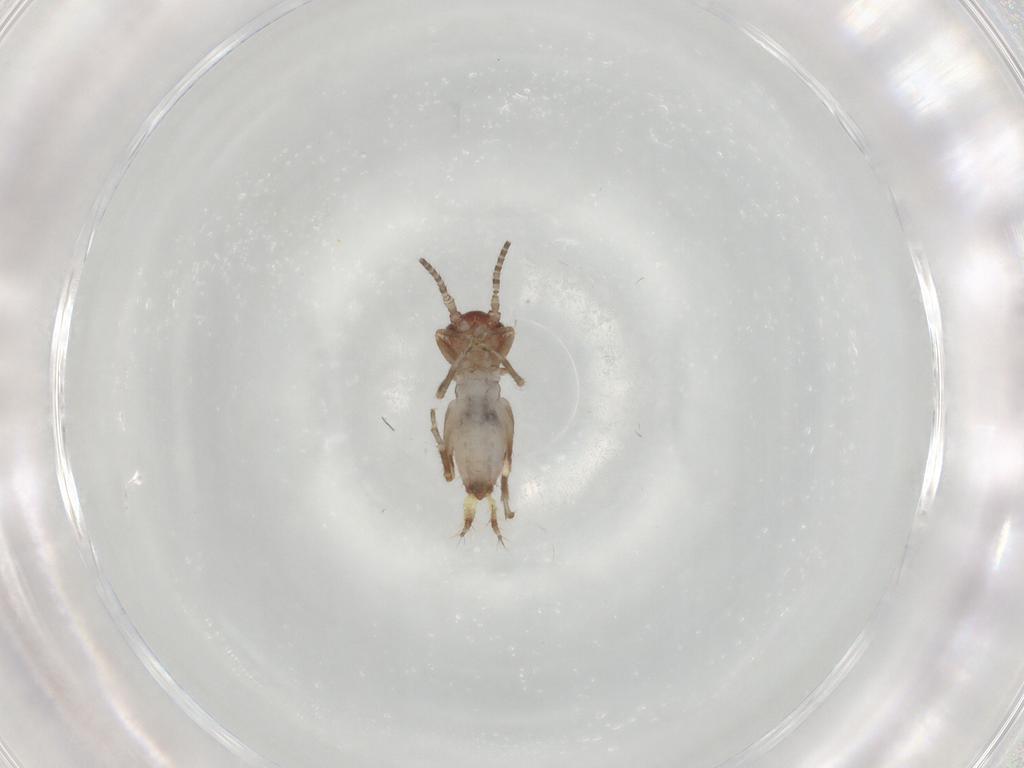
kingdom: Animalia
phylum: Arthropoda
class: Insecta
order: Orthoptera
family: Mogoplistidae
